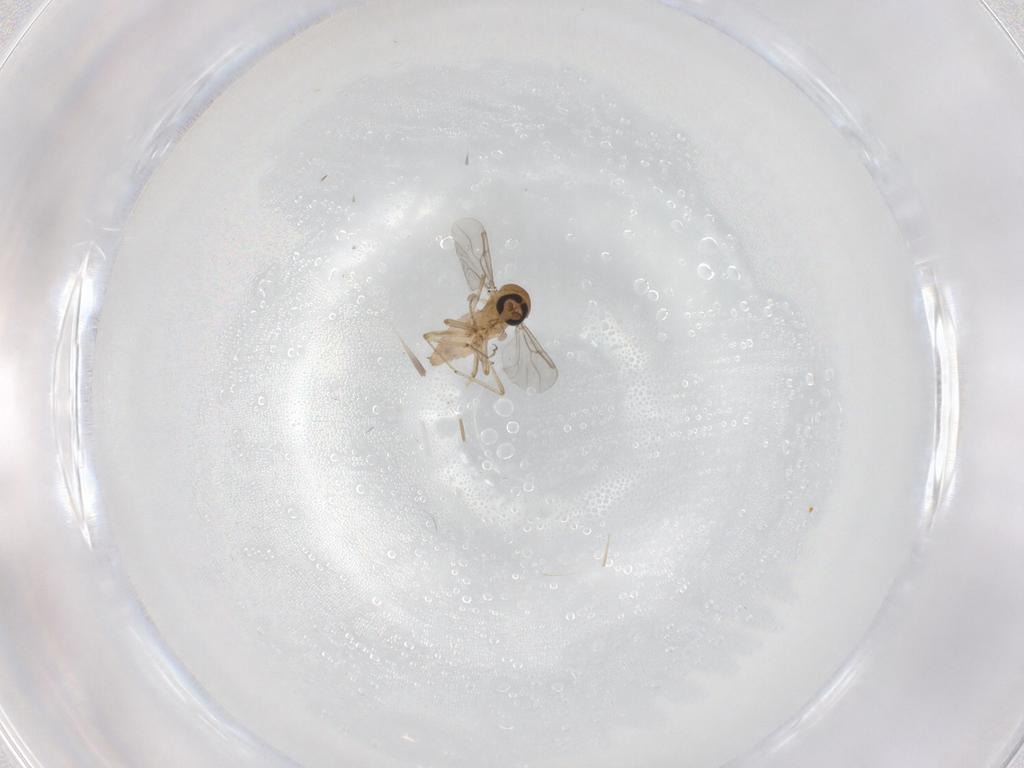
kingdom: Animalia
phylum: Arthropoda
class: Insecta
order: Diptera
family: Ceratopogonidae
